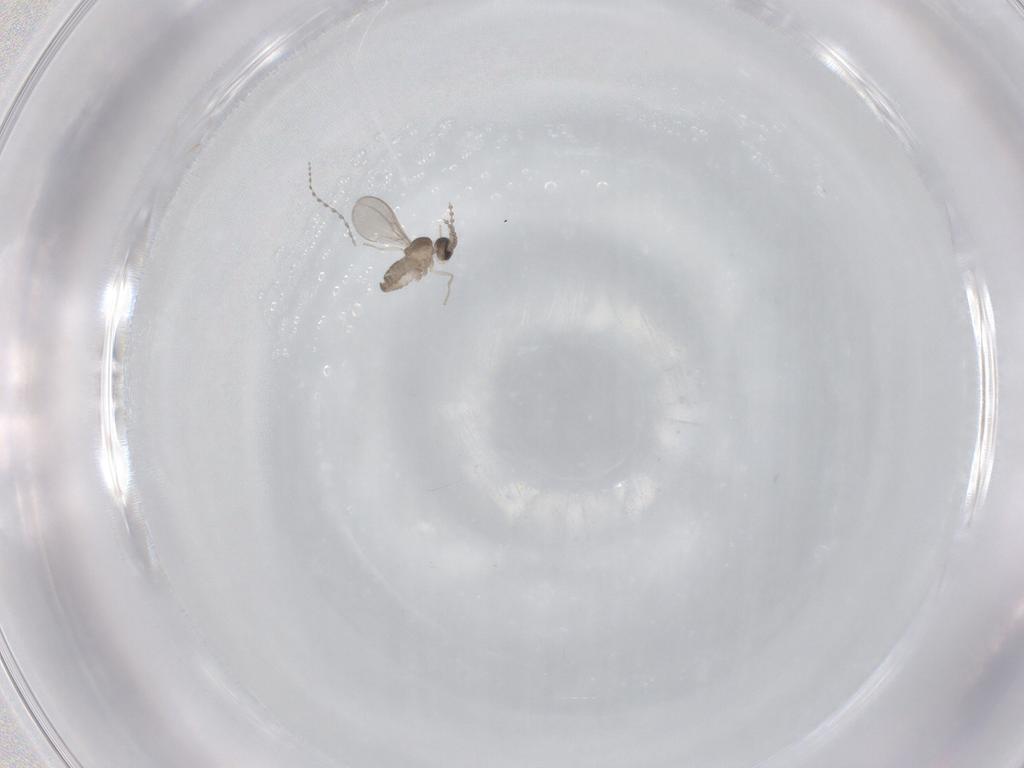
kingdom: Animalia
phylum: Arthropoda
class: Insecta
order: Diptera
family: Cecidomyiidae
